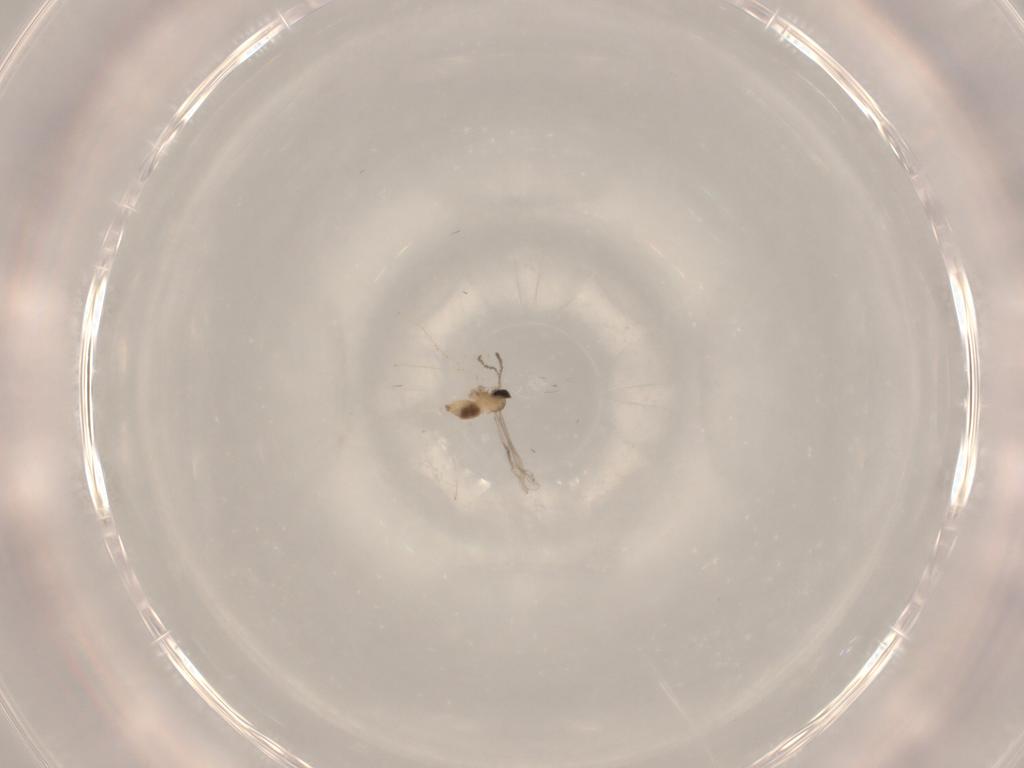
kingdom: Animalia
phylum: Arthropoda
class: Insecta
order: Diptera
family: Cecidomyiidae
